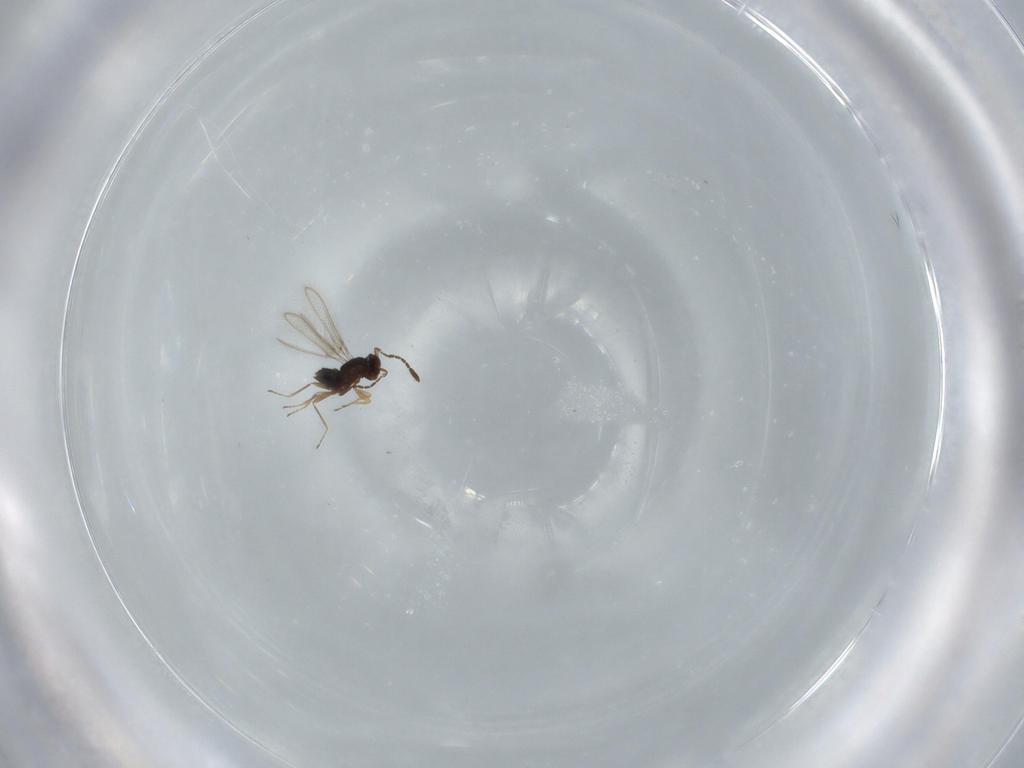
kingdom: Animalia
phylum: Arthropoda
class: Insecta
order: Hymenoptera
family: Mymaridae
